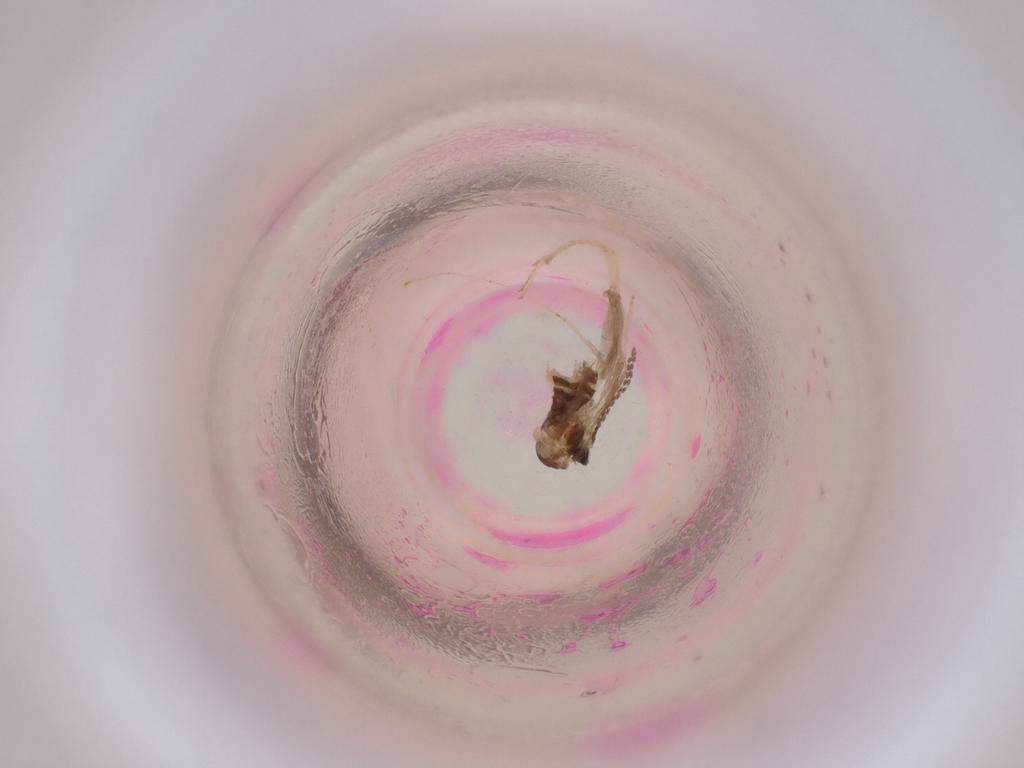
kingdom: Animalia
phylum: Arthropoda
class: Insecta
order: Diptera
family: Cecidomyiidae
